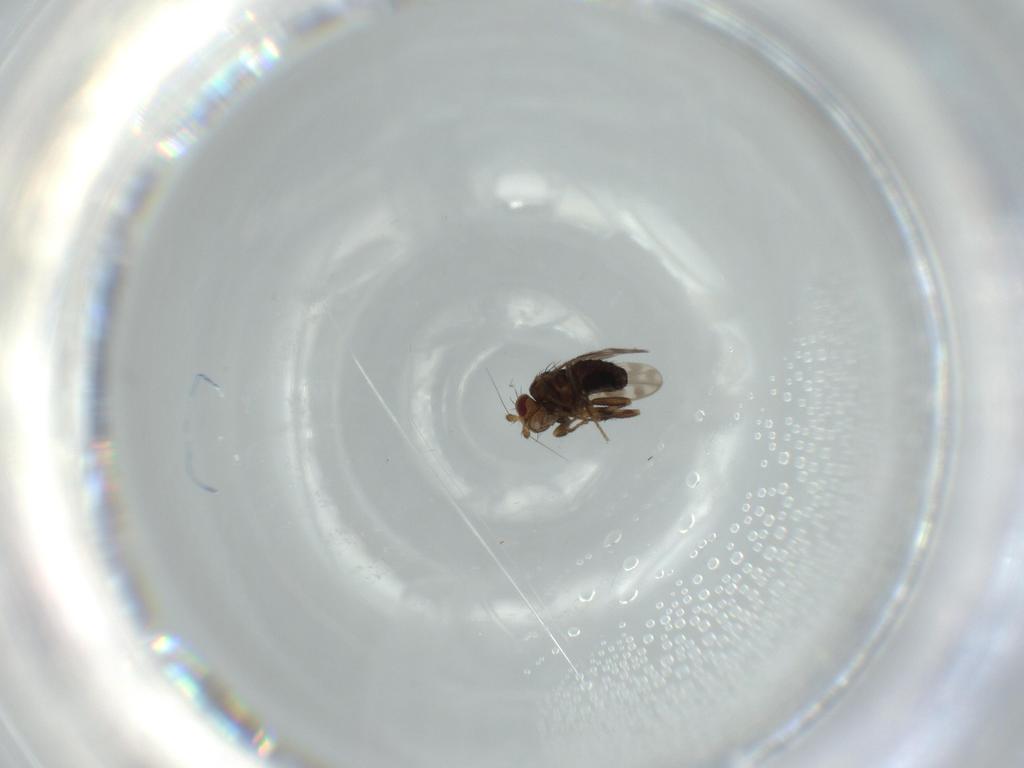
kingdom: Animalia
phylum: Arthropoda
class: Insecta
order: Diptera
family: Sphaeroceridae
